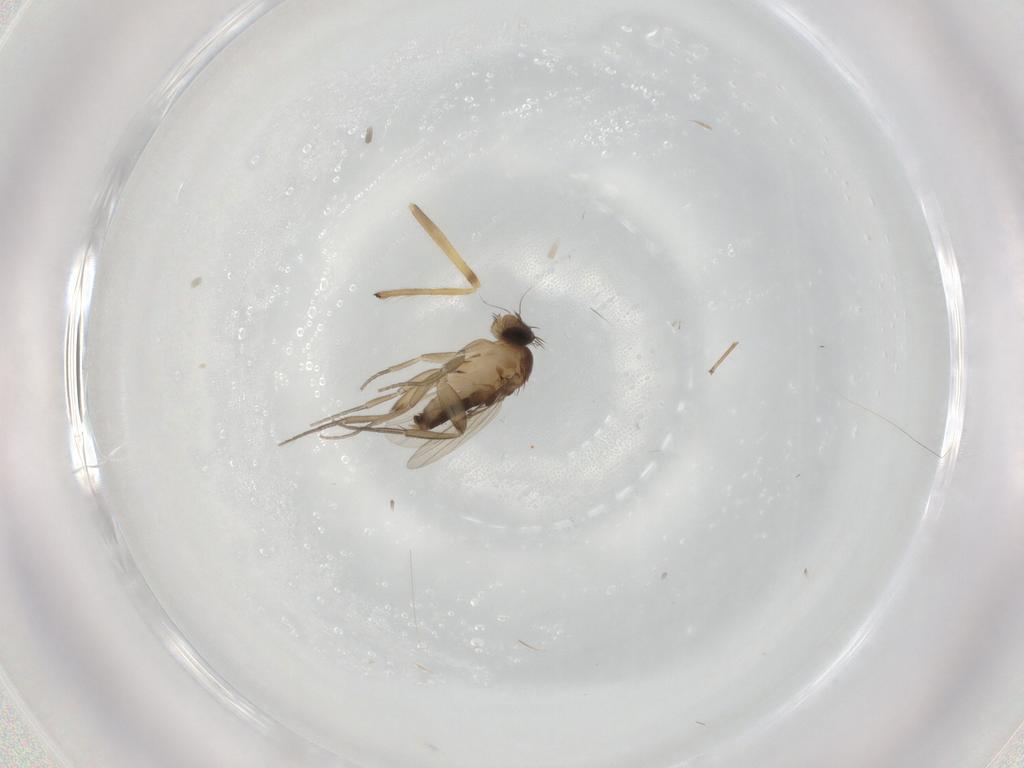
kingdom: Animalia
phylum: Arthropoda
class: Insecta
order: Diptera
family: Phoridae
